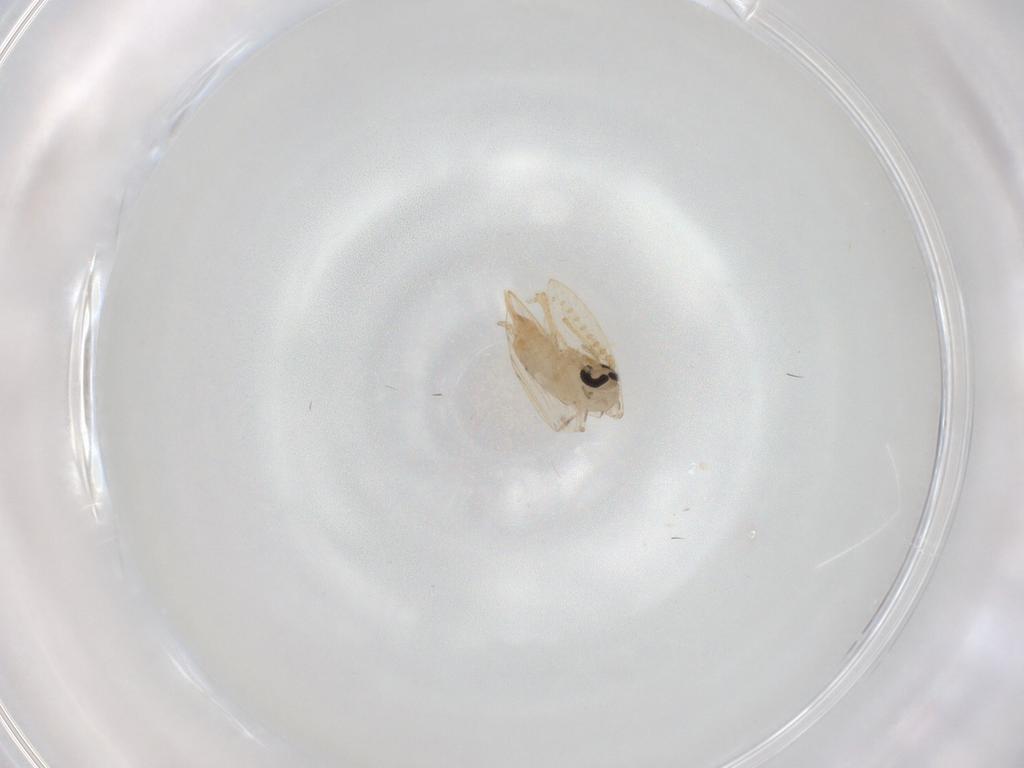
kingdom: Animalia
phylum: Arthropoda
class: Insecta
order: Diptera
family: Psychodidae
